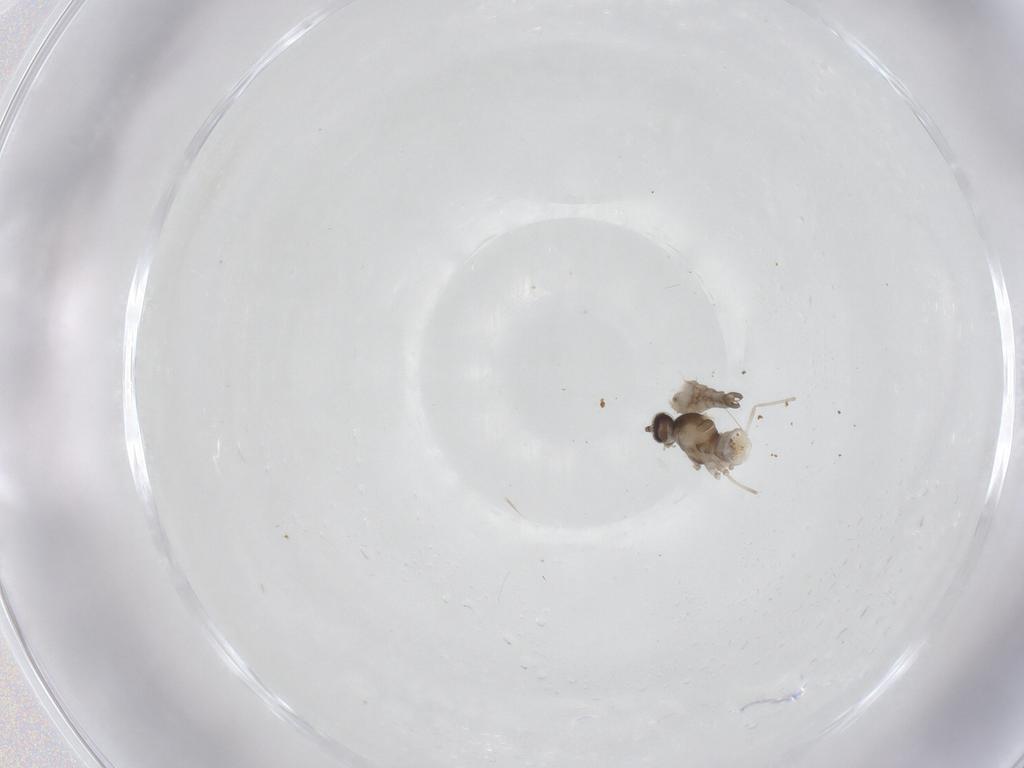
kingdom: Animalia
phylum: Arthropoda
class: Insecta
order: Diptera
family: Cecidomyiidae
